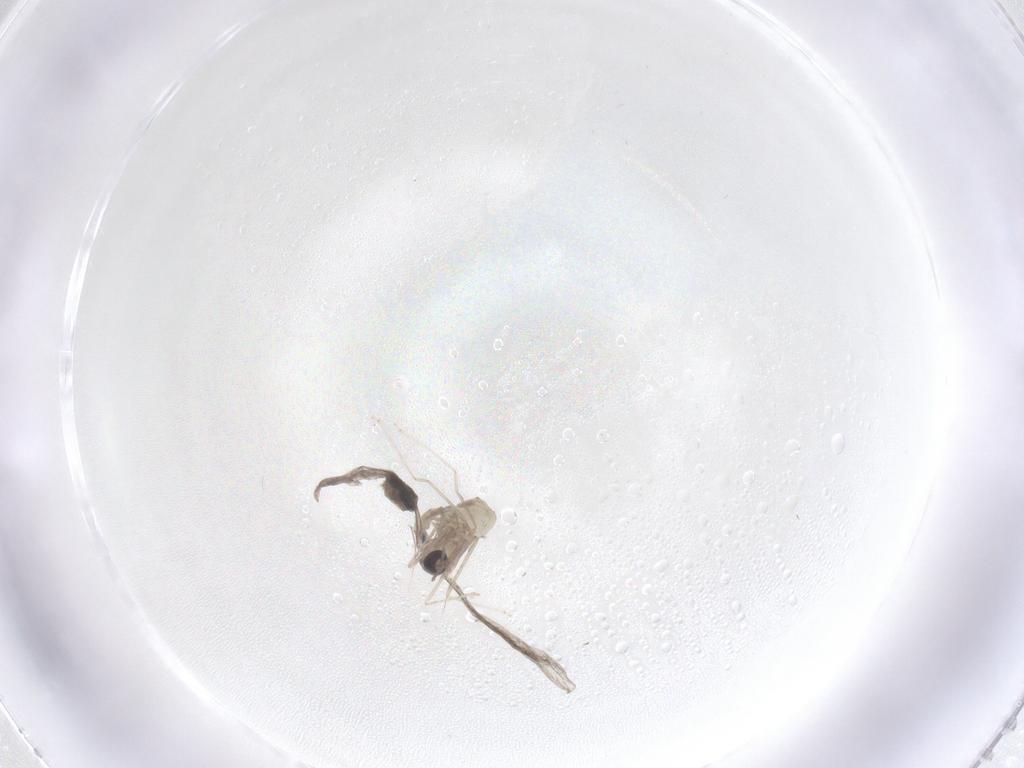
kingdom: Animalia
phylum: Arthropoda
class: Insecta
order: Diptera
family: Cecidomyiidae
